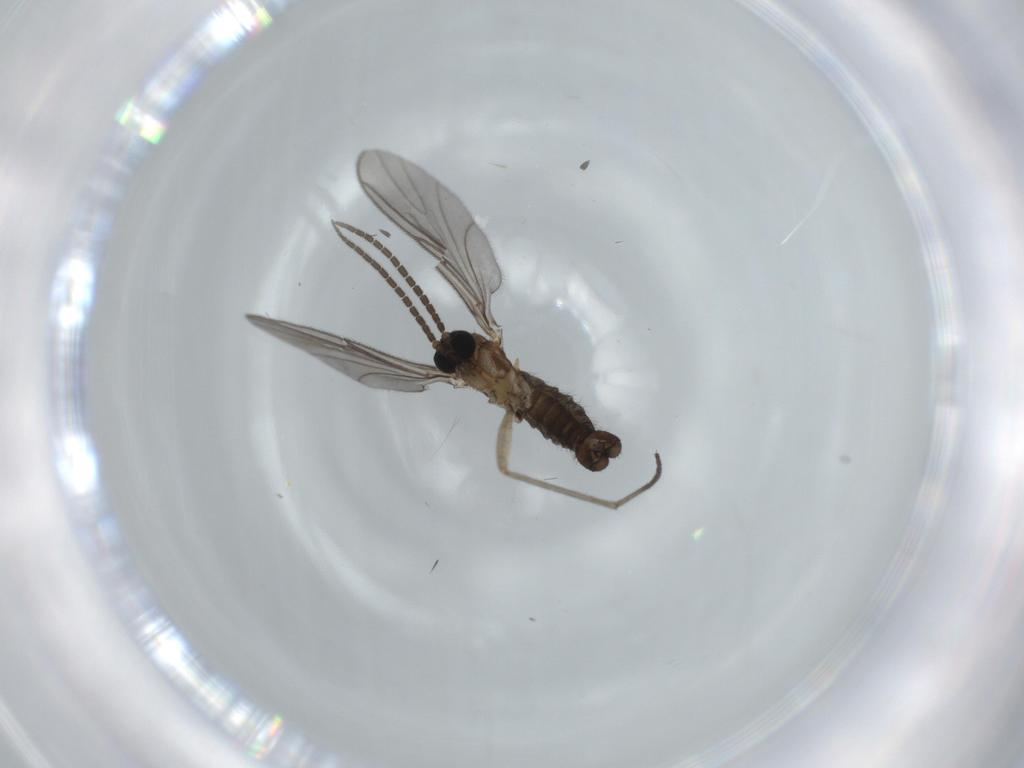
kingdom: Animalia
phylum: Arthropoda
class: Insecta
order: Diptera
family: Sciaridae
